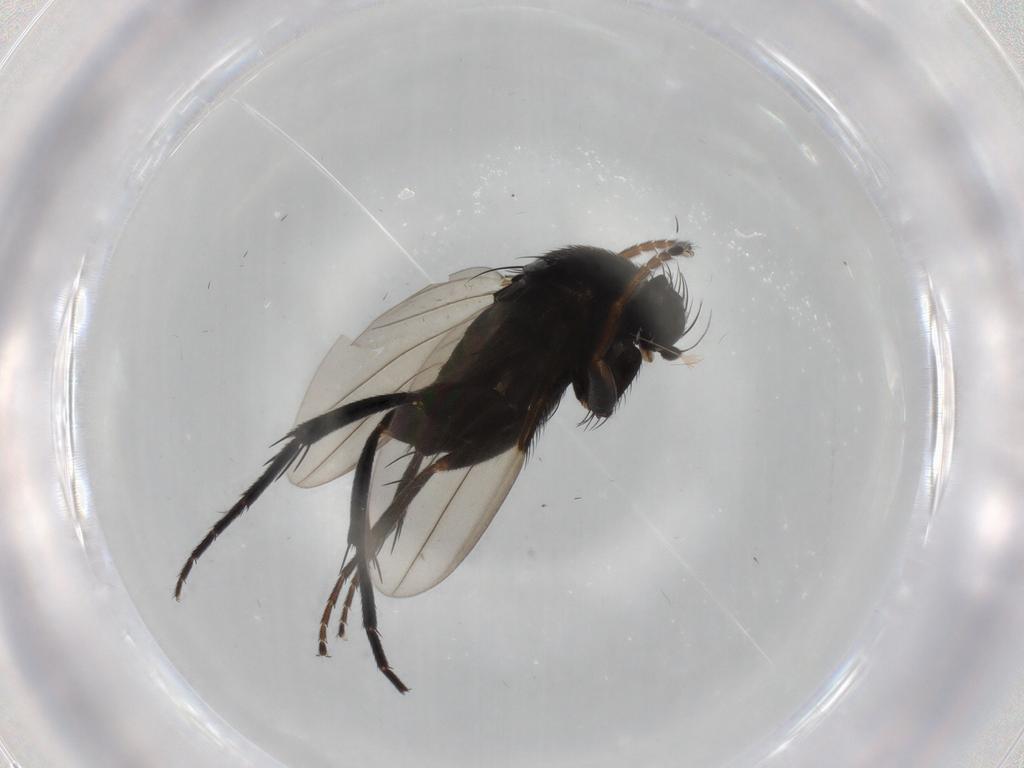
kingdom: Animalia
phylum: Arthropoda
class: Insecta
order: Diptera
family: Phoridae
